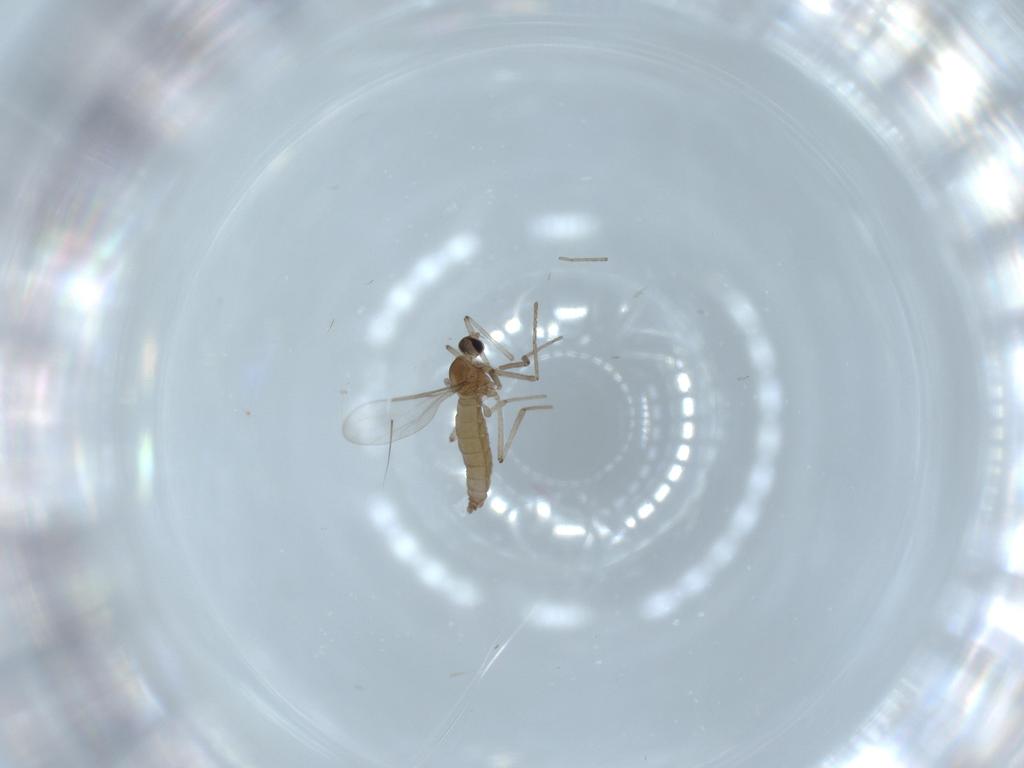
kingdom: Animalia
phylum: Arthropoda
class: Insecta
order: Diptera
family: Cecidomyiidae
